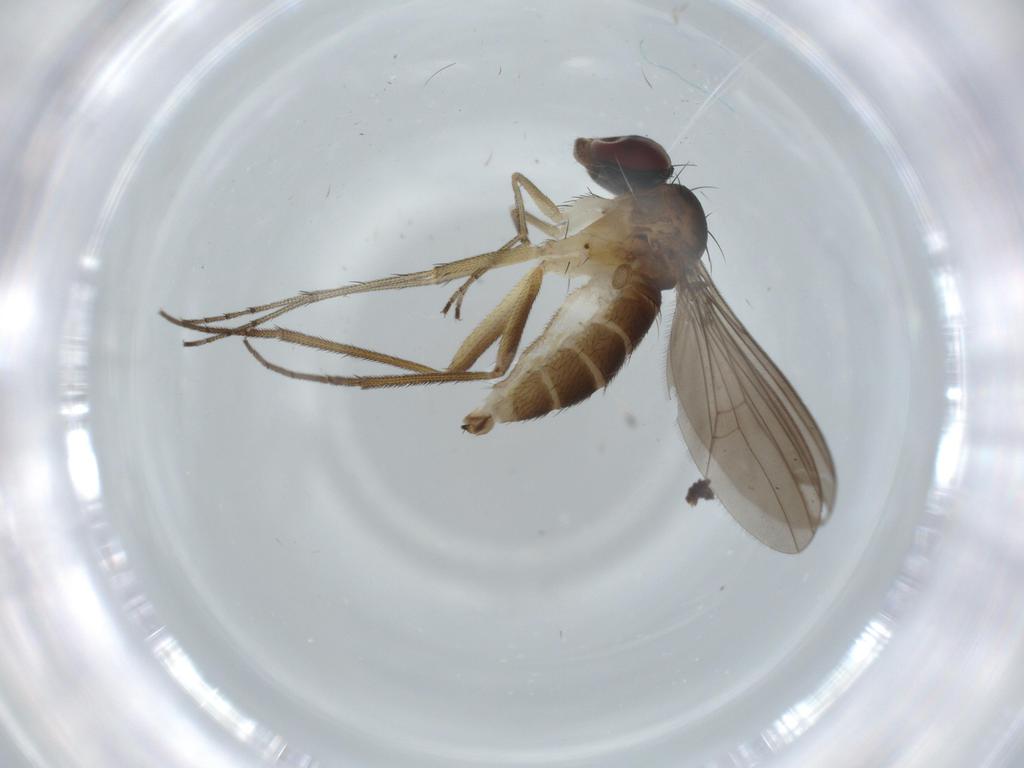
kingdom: Animalia
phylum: Arthropoda
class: Insecta
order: Diptera
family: Dolichopodidae
